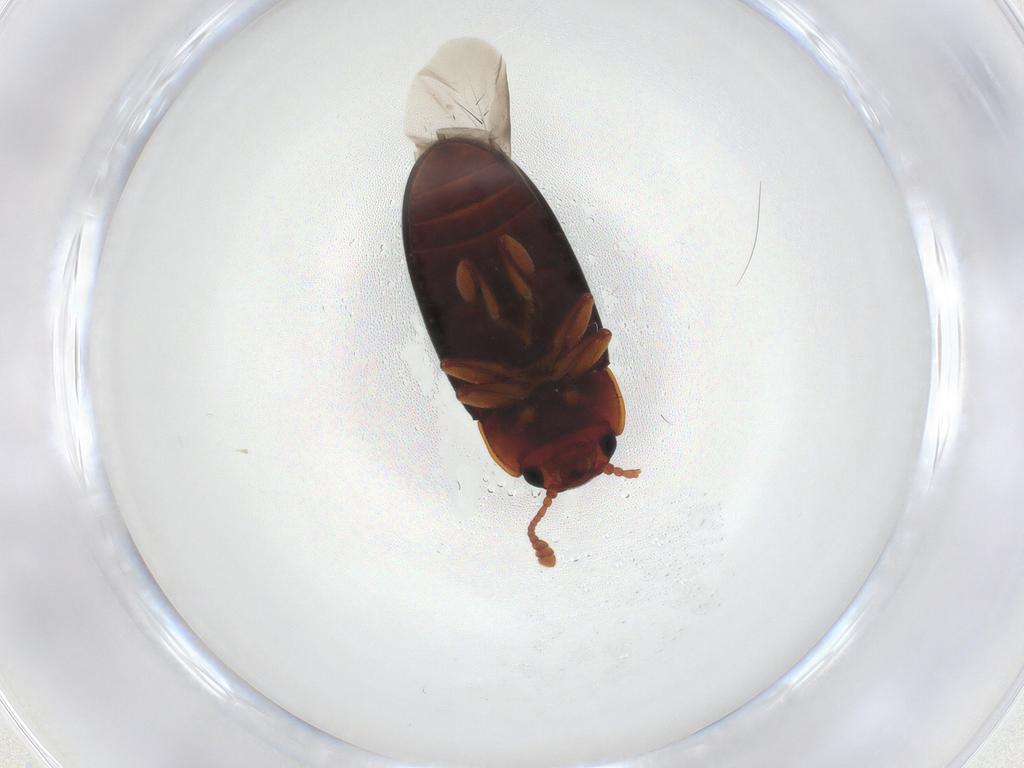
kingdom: Animalia
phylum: Arthropoda
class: Insecta
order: Coleoptera
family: Erotylidae
